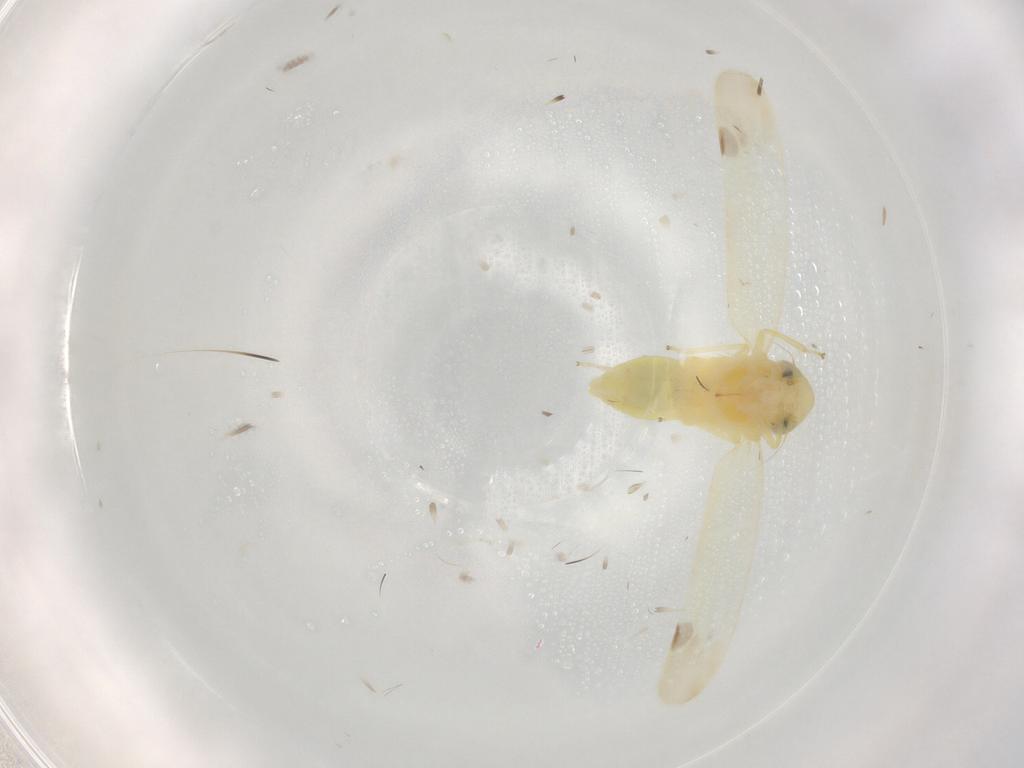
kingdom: Animalia
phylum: Arthropoda
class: Insecta
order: Hemiptera
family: Cicadellidae
